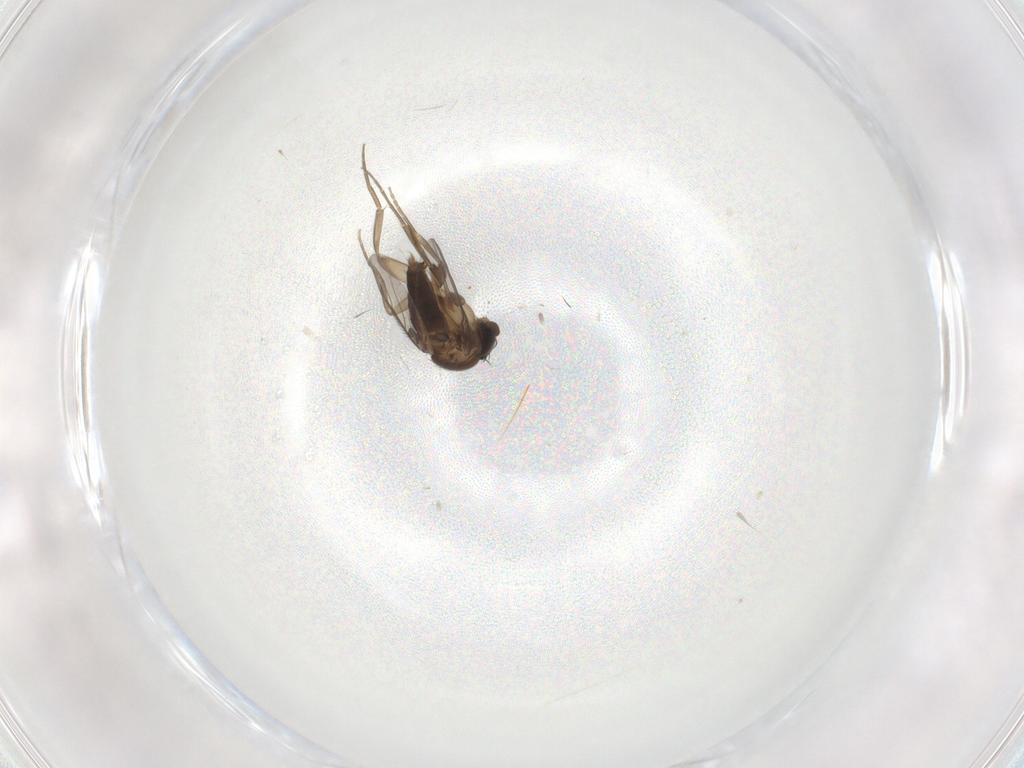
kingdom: Animalia
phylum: Arthropoda
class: Insecta
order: Diptera
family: Phoridae
